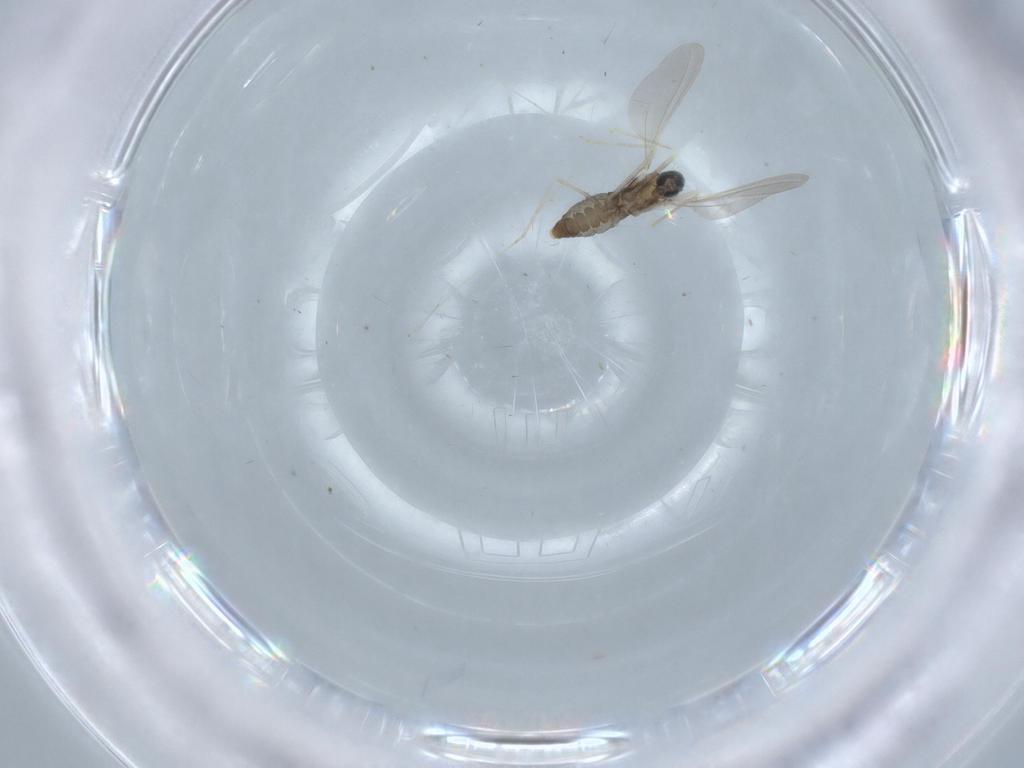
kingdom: Animalia
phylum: Arthropoda
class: Insecta
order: Diptera
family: Cecidomyiidae
